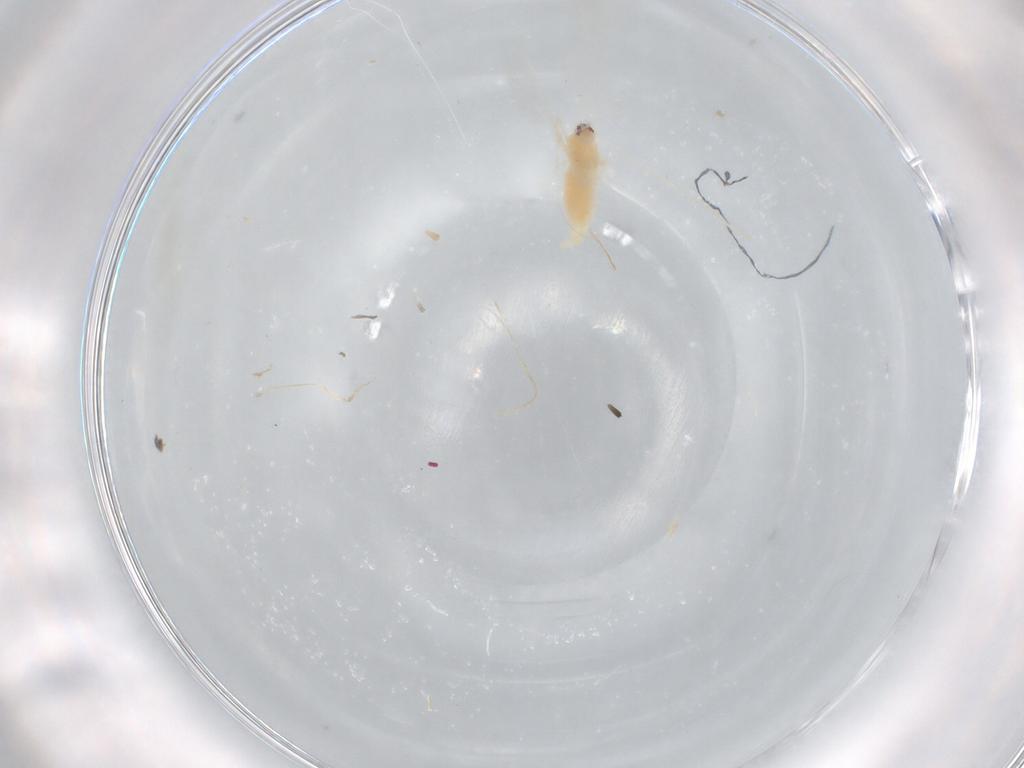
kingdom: Animalia
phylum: Arthropoda
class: Insecta
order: Diptera
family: Cecidomyiidae
